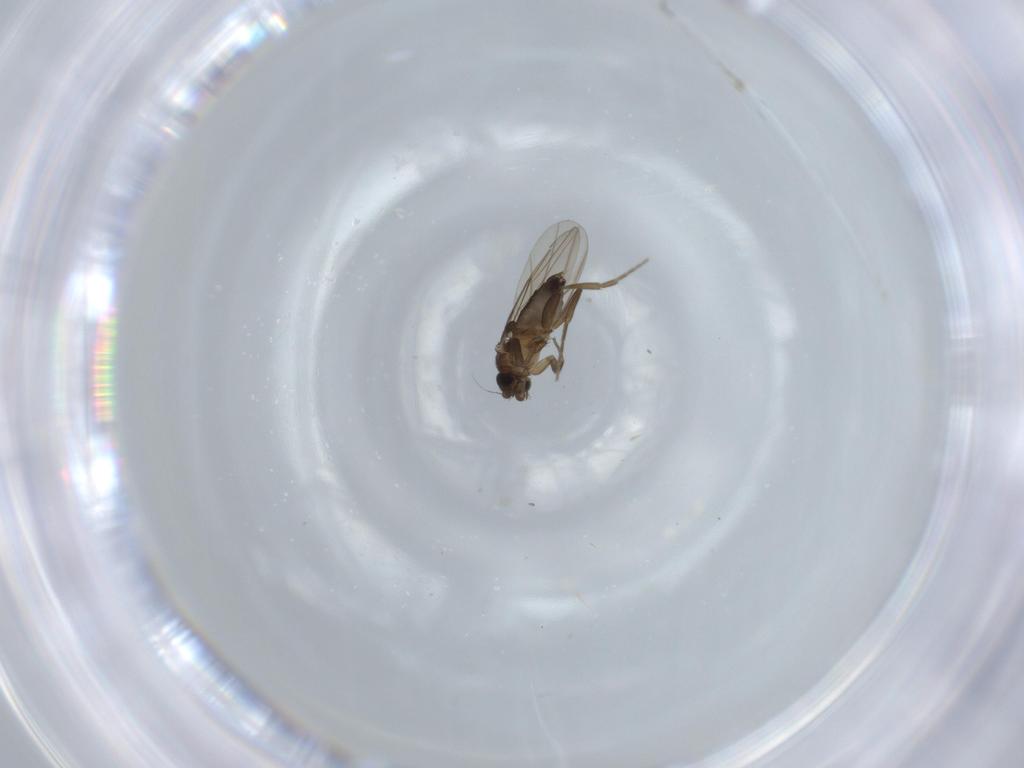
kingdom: Animalia
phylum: Arthropoda
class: Insecta
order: Diptera
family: Phoridae
